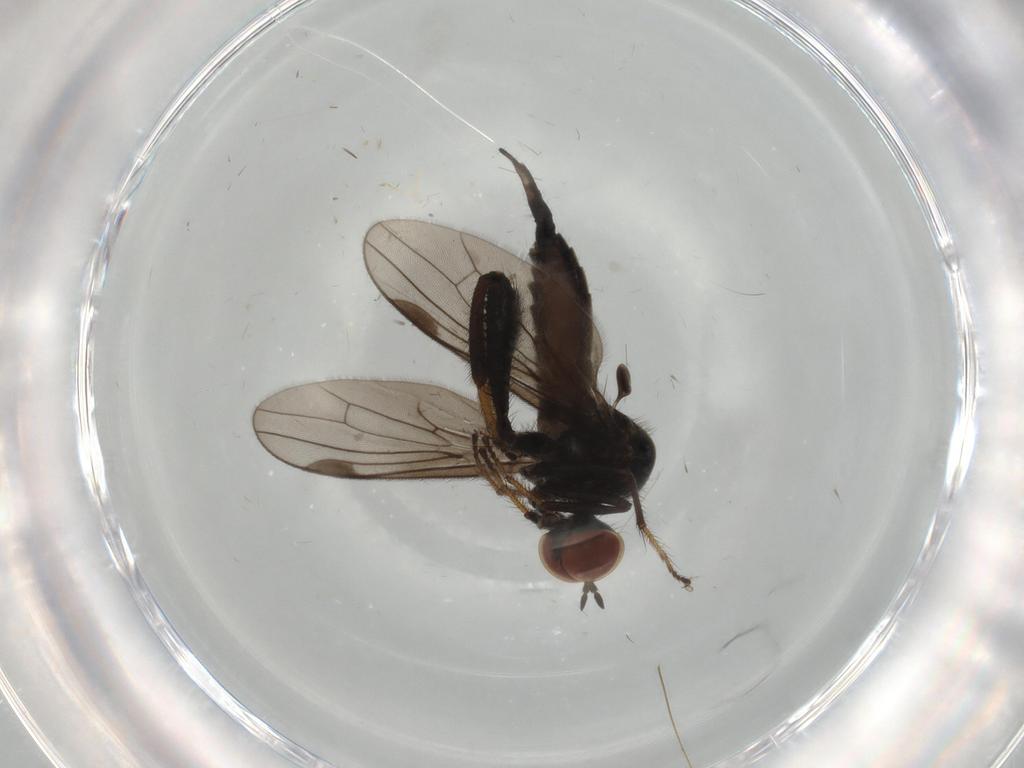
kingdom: Animalia
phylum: Arthropoda
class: Insecta
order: Diptera
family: Hybotidae
